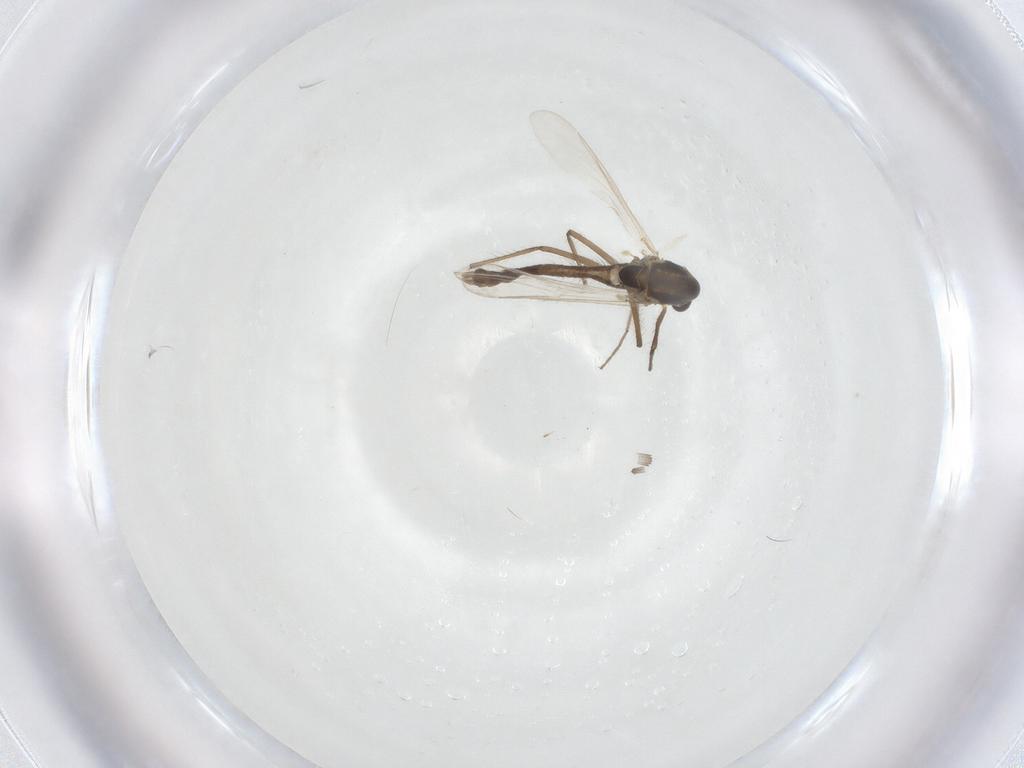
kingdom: Animalia
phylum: Arthropoda
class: Insecta
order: Diptera
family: Chironomidae
